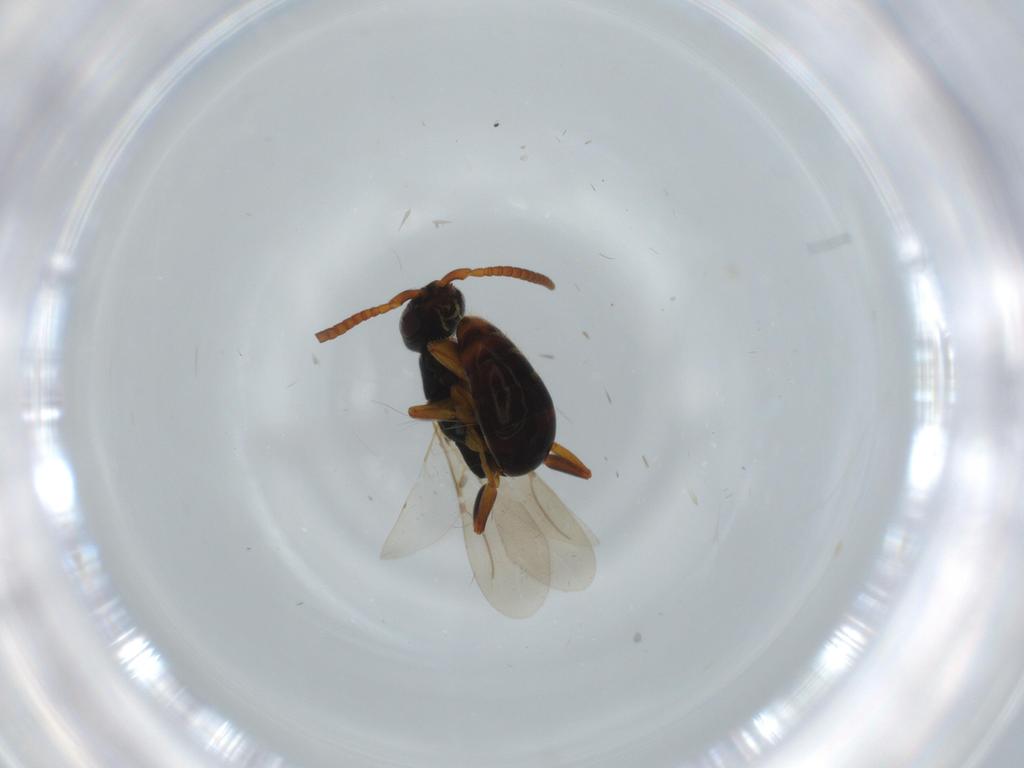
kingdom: Animalia
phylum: Arthropoda
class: Insecta
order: Hymenoptera
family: Bethylidae
